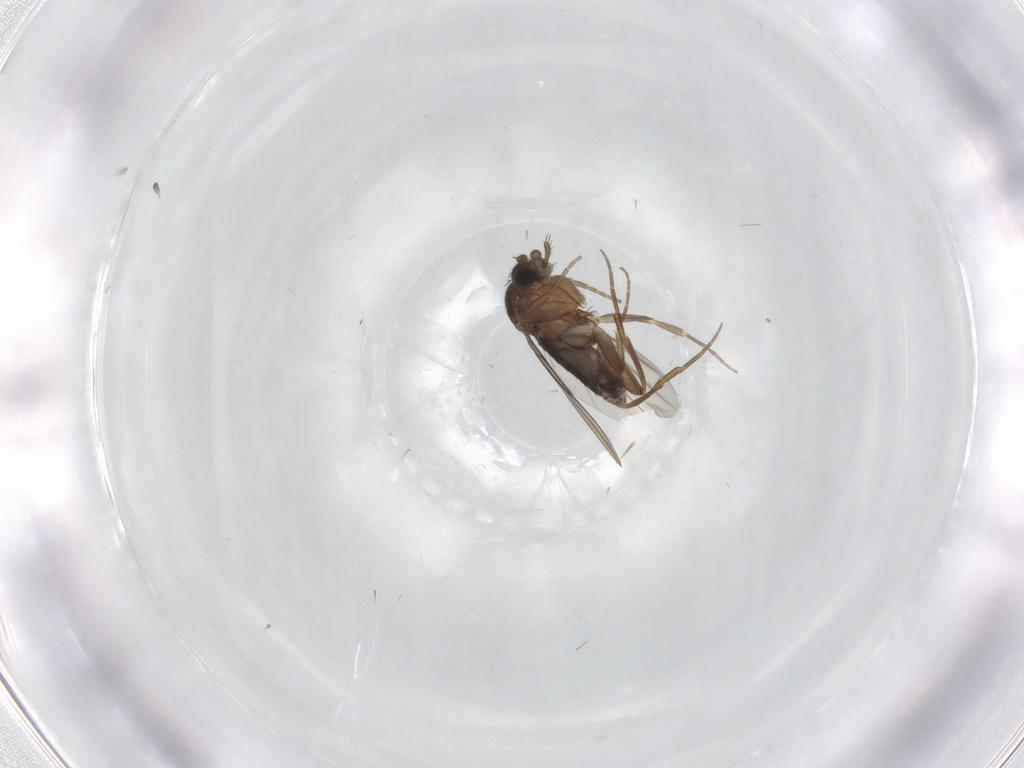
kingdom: Animalia
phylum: Arthropoda
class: Insecta
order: Diptera
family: Sciaridae
